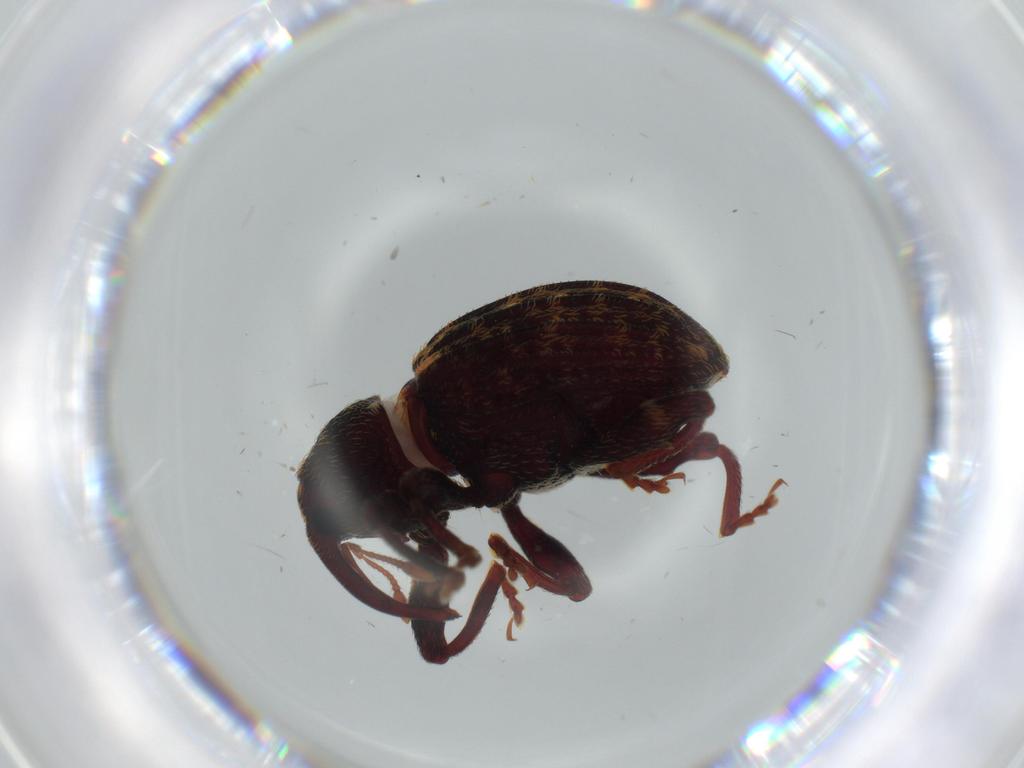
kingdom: Animalia
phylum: Arthropoda
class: Insecta
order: Coleoptera
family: Curculionidae
